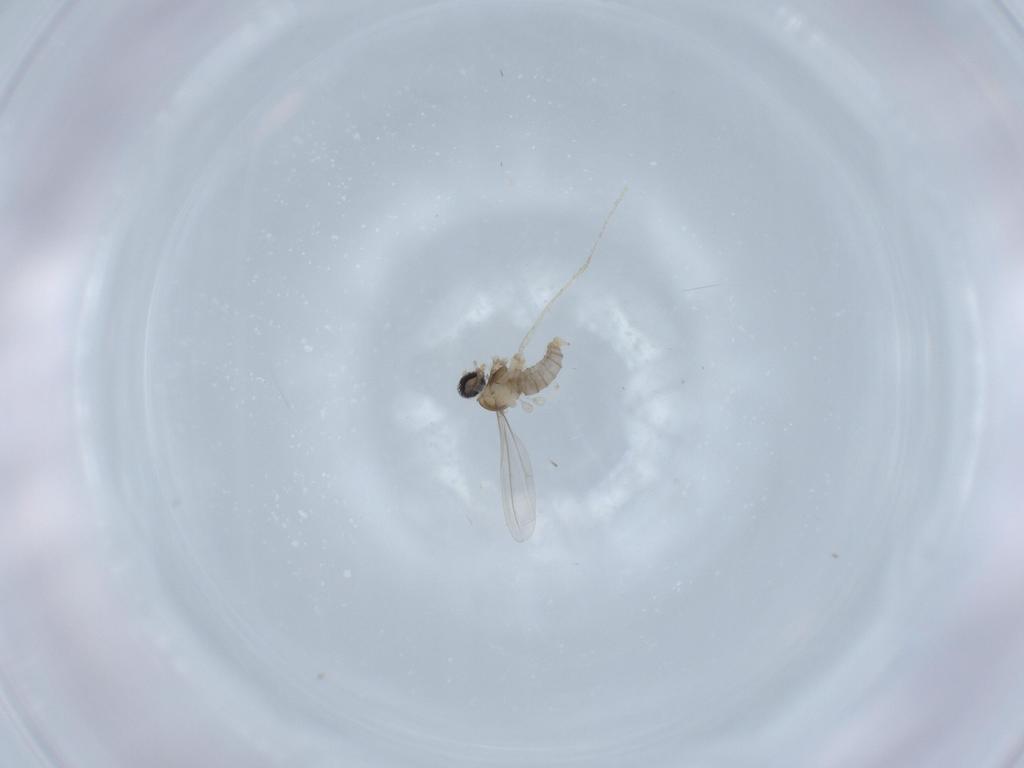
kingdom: Animalia
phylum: Arthropoda
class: Insecta
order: Diptera
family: Cecidomyiidae
